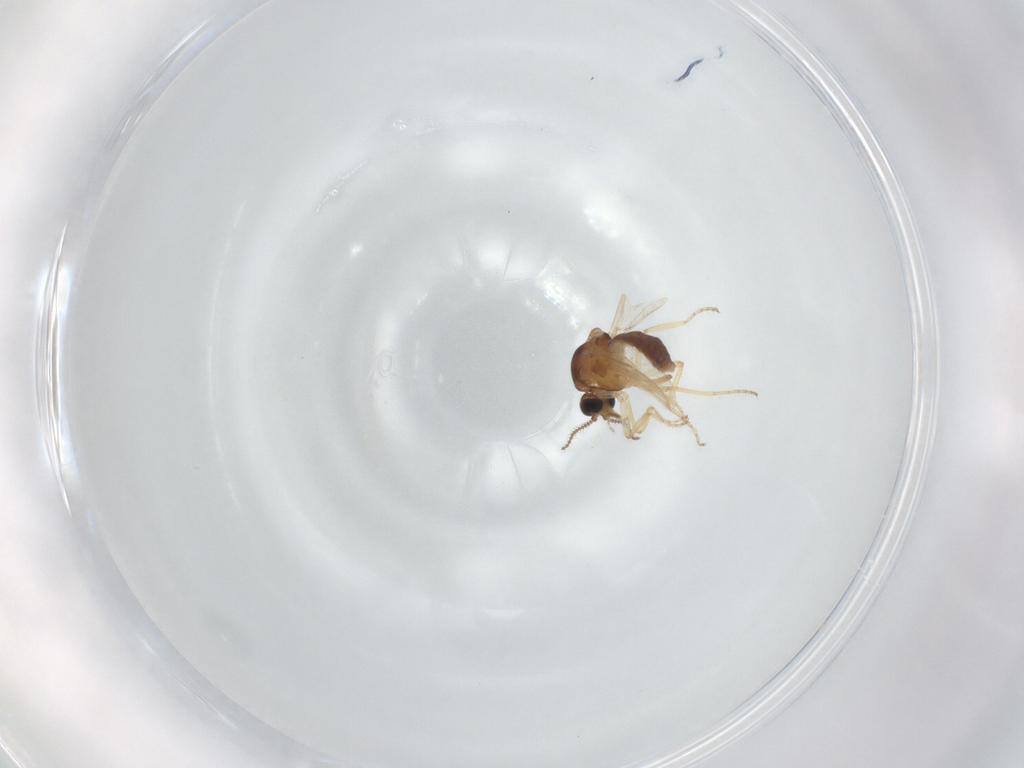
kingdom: Animalia
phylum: Arthropoda
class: Insecta
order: Diptera
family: Ceratopogonidae
